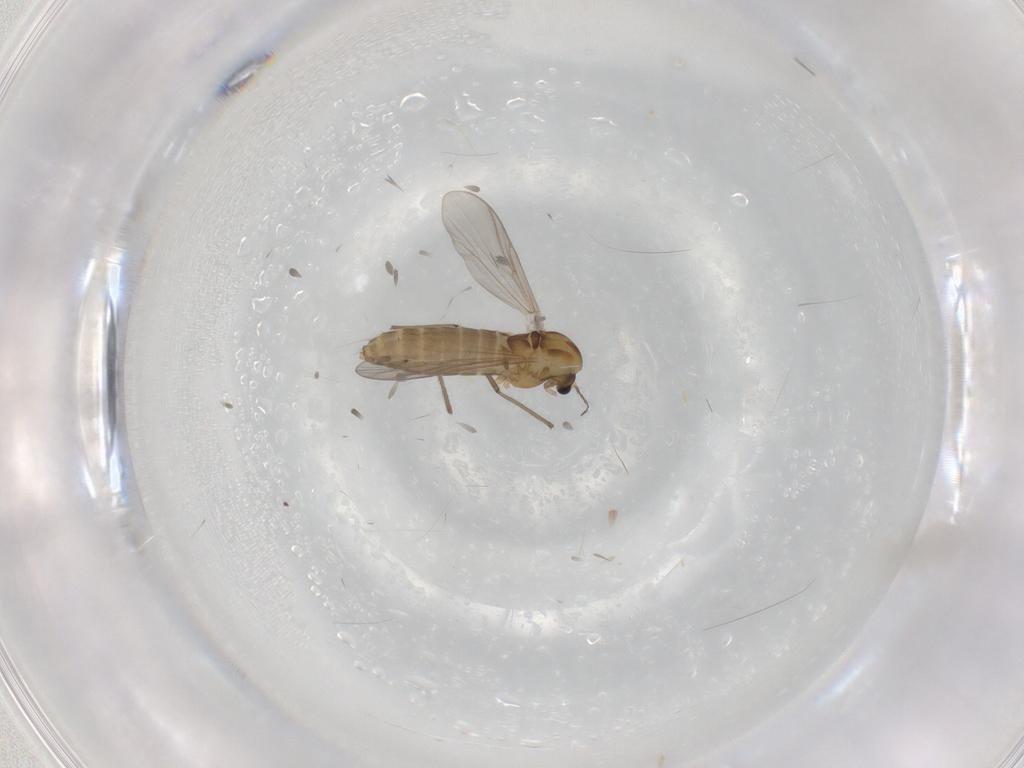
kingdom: Animalia
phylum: Arthropoda
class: Insecta
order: Diptera
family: Chironomidae
